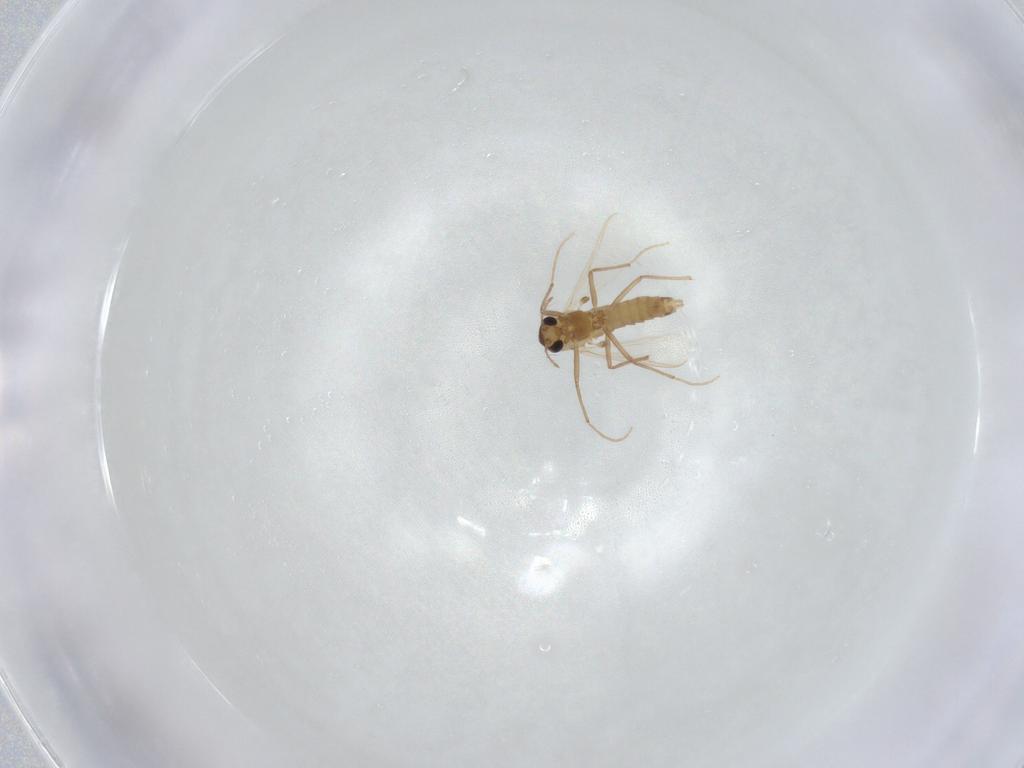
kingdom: Animalia
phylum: Arthropoda
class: Insecta
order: Diptera
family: Chironomidae
